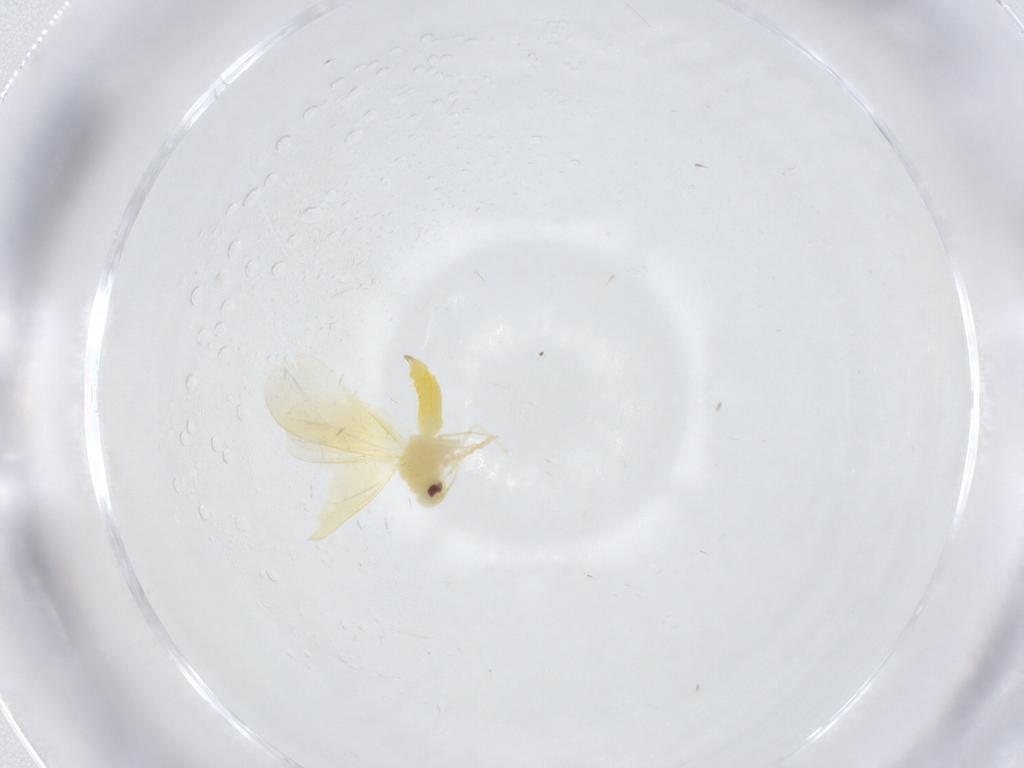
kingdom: Animalia
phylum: Arthropoda
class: Insecta
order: Hemiptera
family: Aleyrodidae
